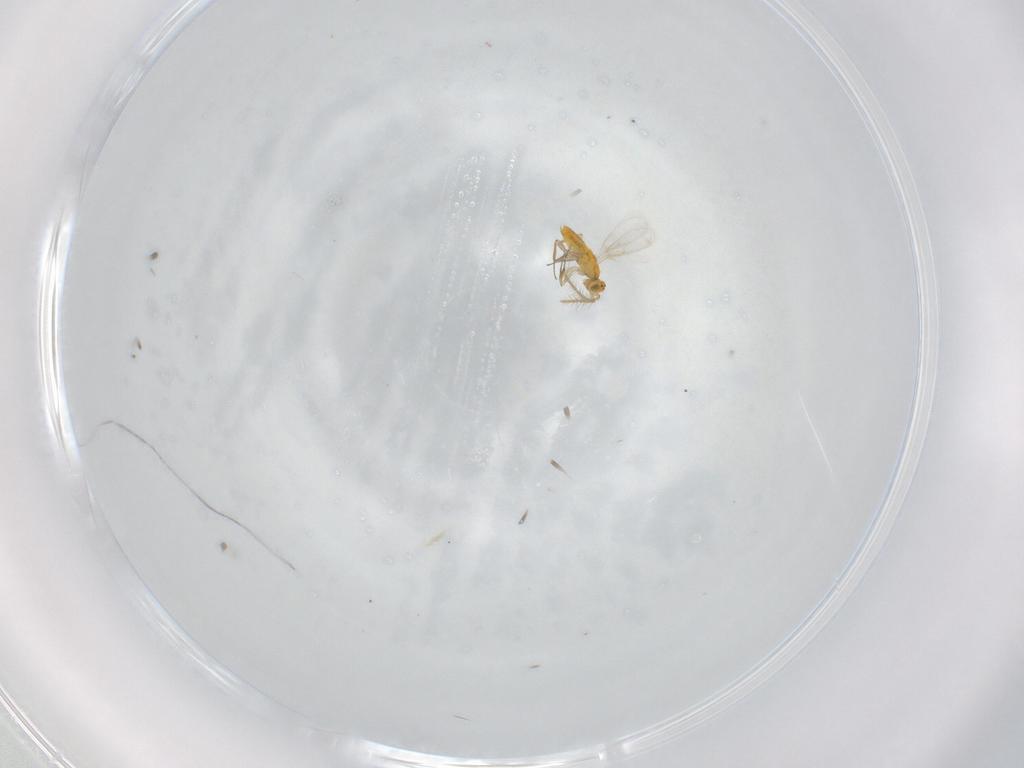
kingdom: Animalia
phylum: Arthropoda
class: Insecta
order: Hymenoptera
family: Aphelinidae
